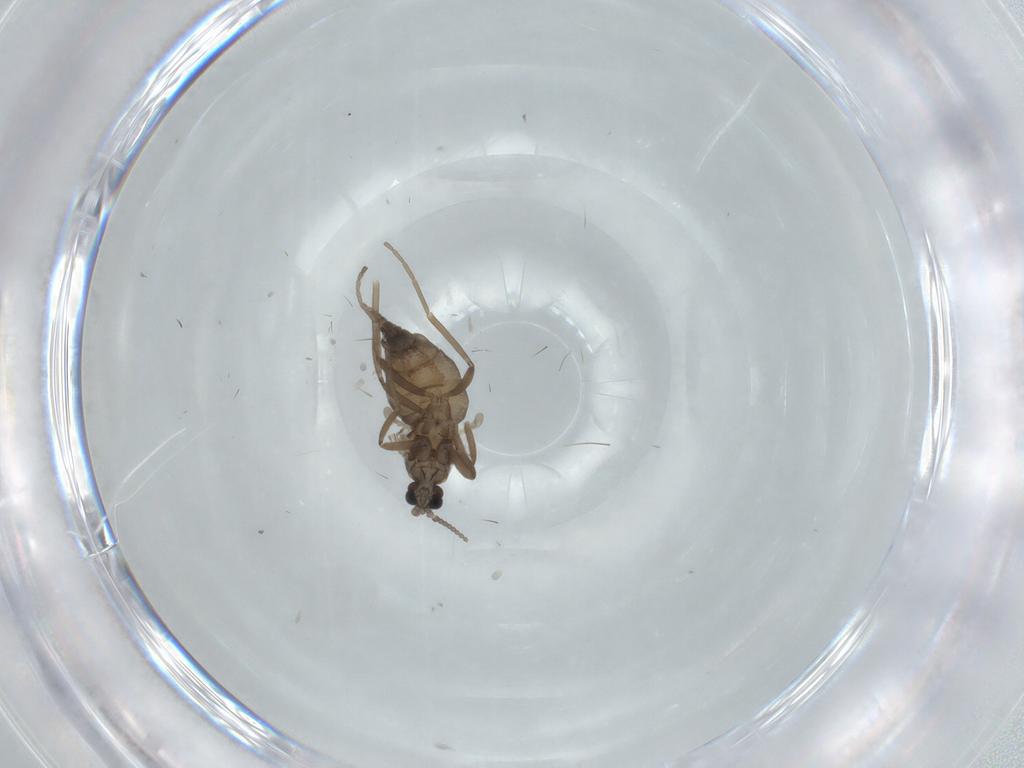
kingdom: Animalia
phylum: Arthropoda
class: Insecta
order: Diptera
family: Cecidomyiidae
